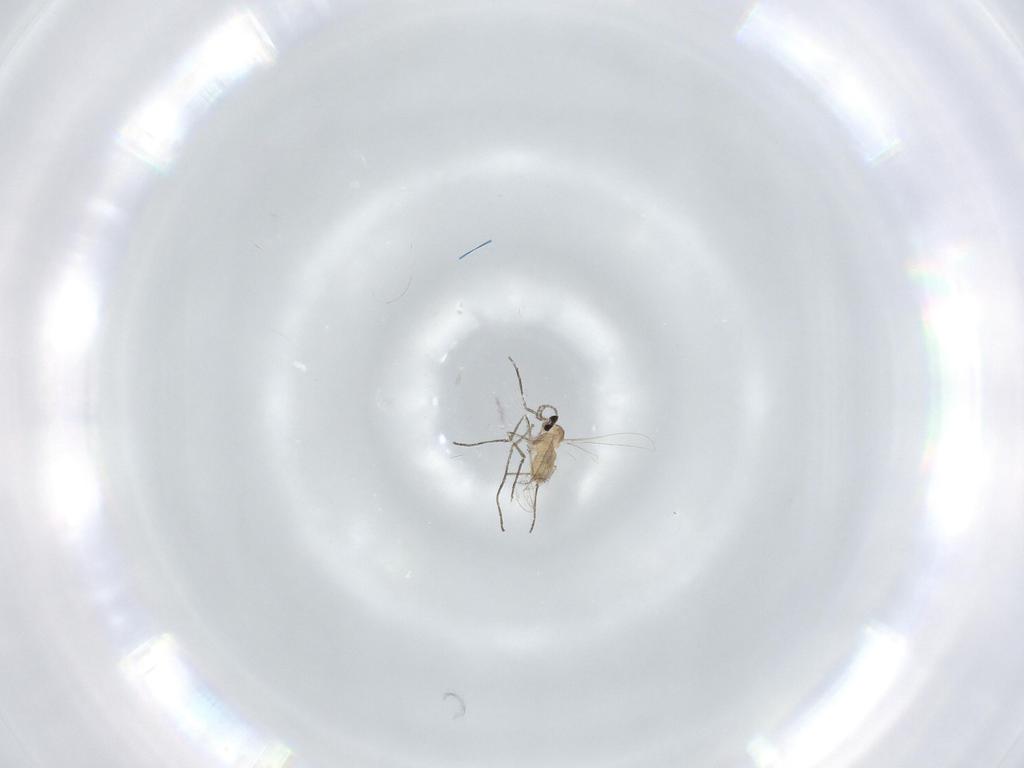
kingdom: Animalia
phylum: Arthropoda
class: Insecta
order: Diptera
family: Cecidomyiidae
